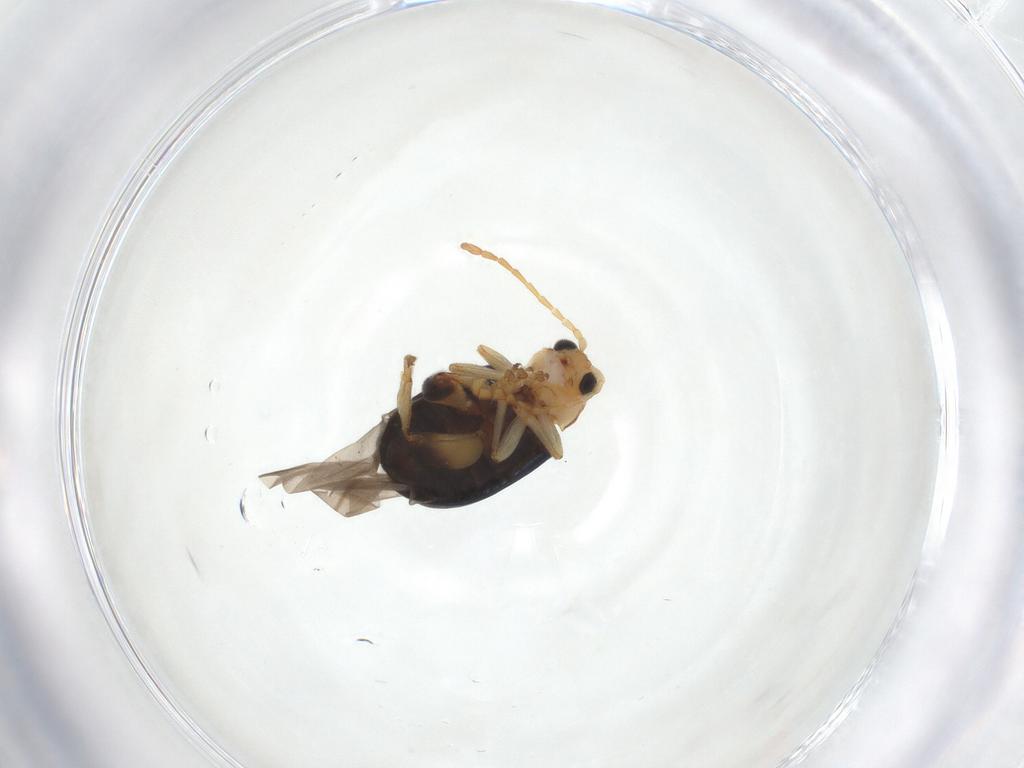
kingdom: Animalia
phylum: Arthropoda
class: Insecta
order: Coleoptera
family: Chrysomelidae
